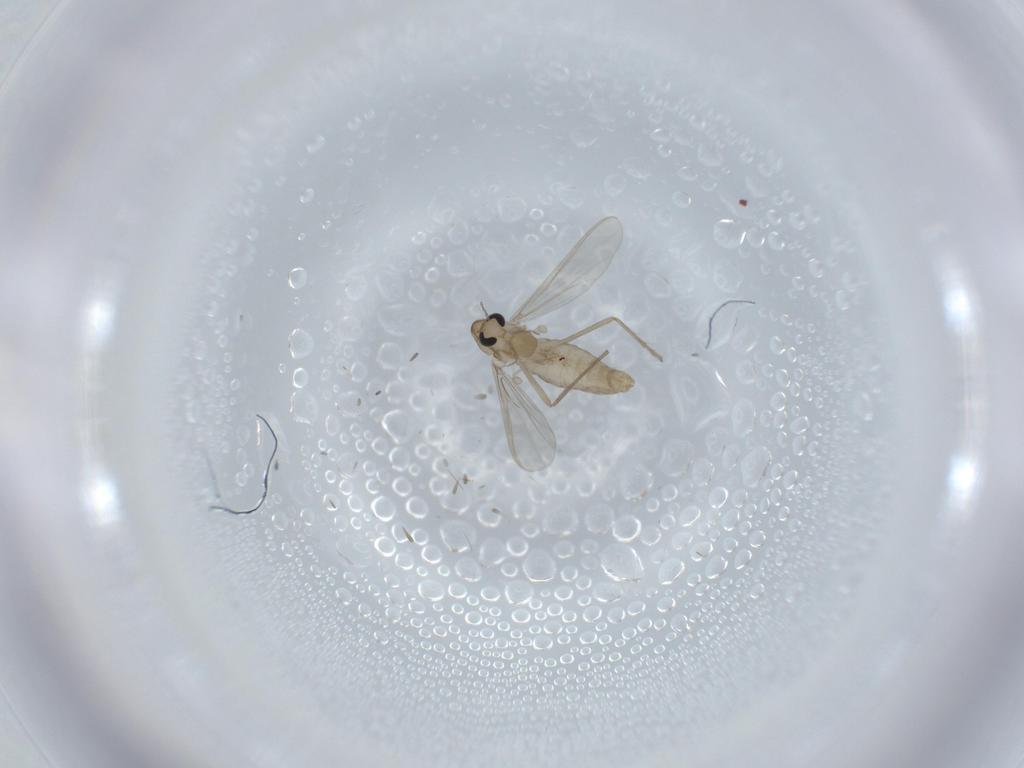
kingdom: Animalia
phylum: Arthropoda
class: Insecta
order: Diptera
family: Chironomidae
